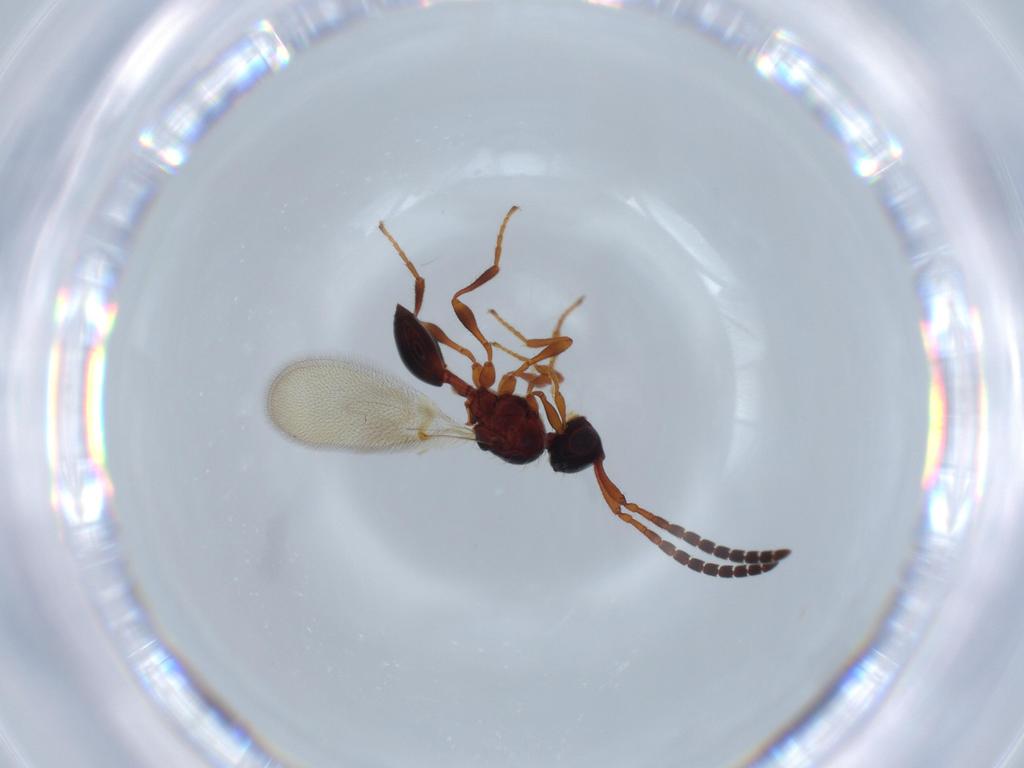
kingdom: Animalia
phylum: Arthropoda
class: Insecta
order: Hymenoptera
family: Diapriidae
